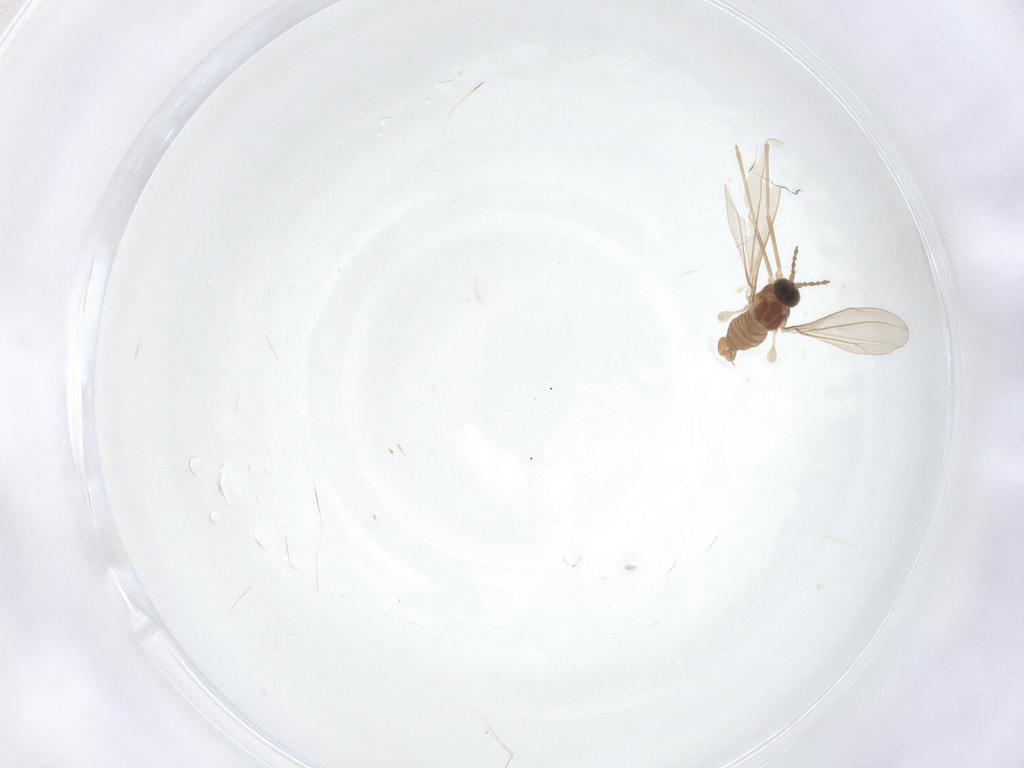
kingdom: Animalia
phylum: Arthropoda
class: Insecta
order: Diptera
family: Cecidomyiidae
